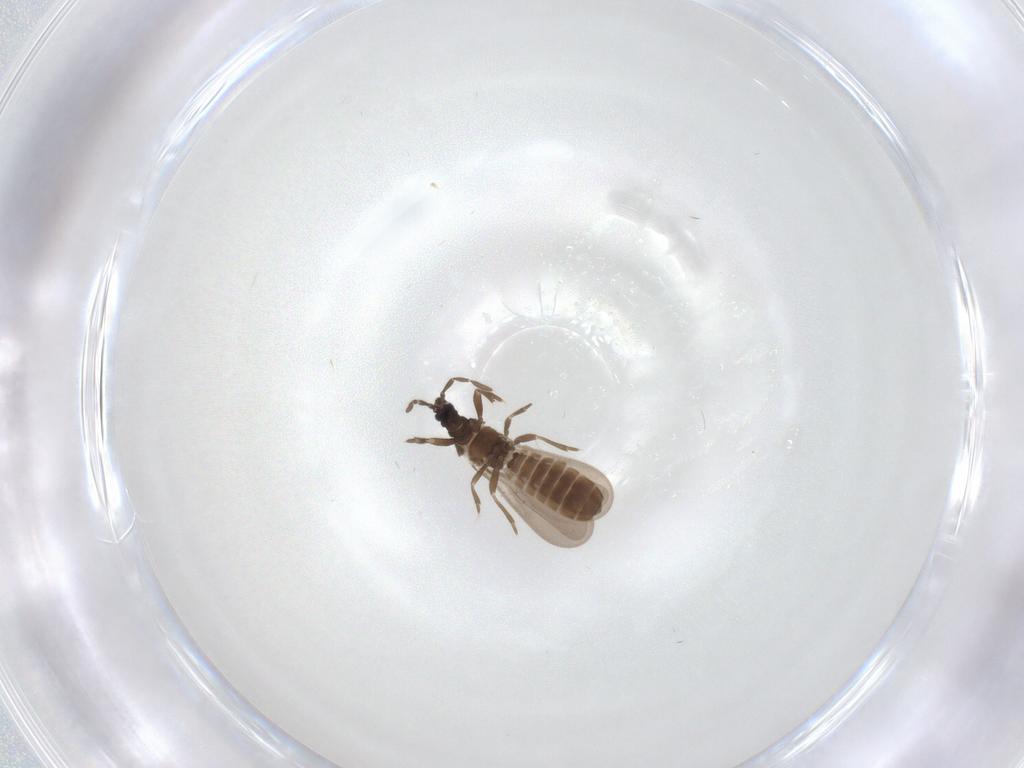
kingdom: Animalia
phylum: Arthropoda
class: Insecta
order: Hemiptera
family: Enicocephalidae
